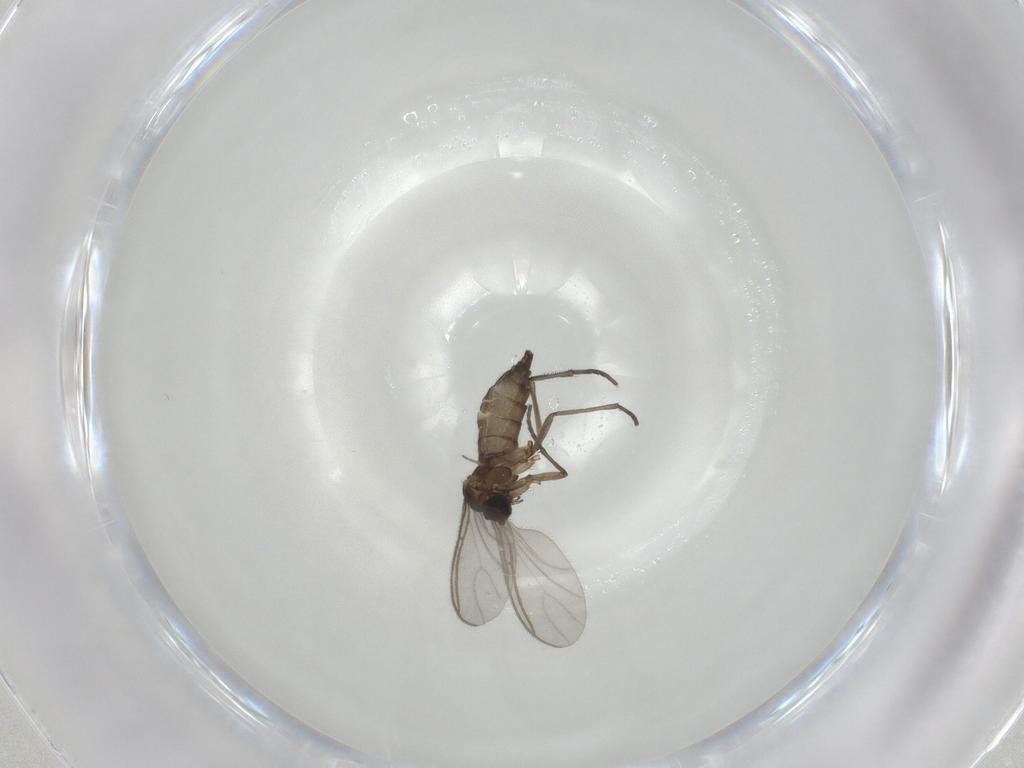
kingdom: Animalia
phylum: Arthropoda
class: Insecta
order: Diptera
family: Sciaridae
